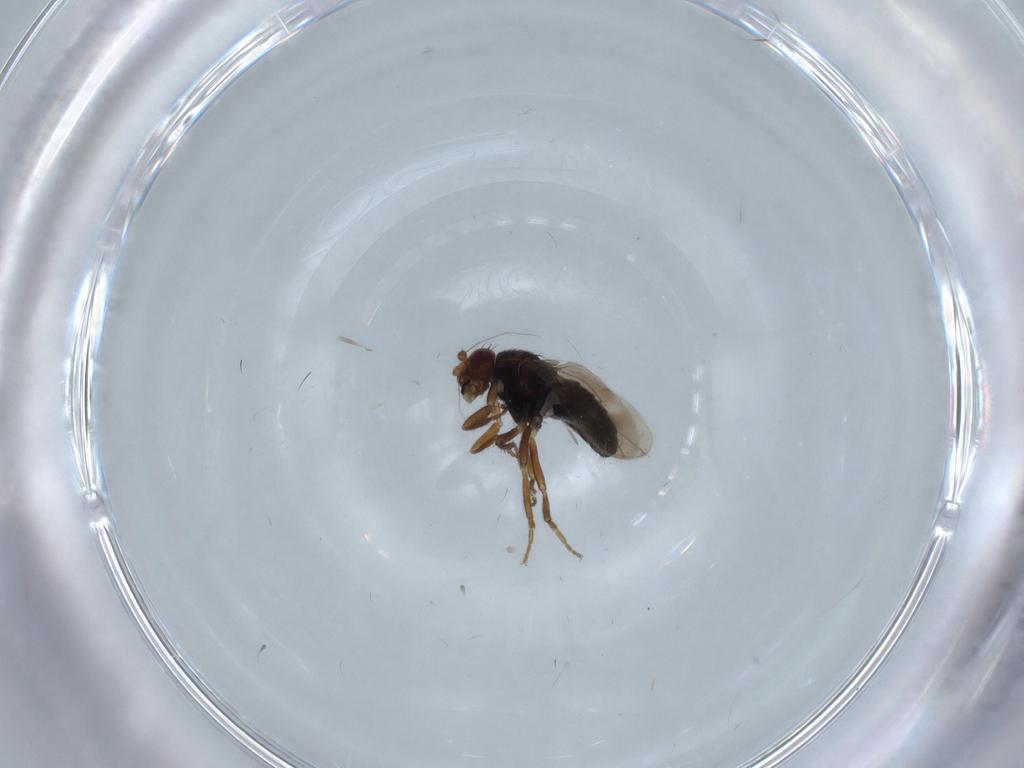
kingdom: Animalia
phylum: Arthropoda
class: Insecta
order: Diptera
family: Sphaeroceridae
